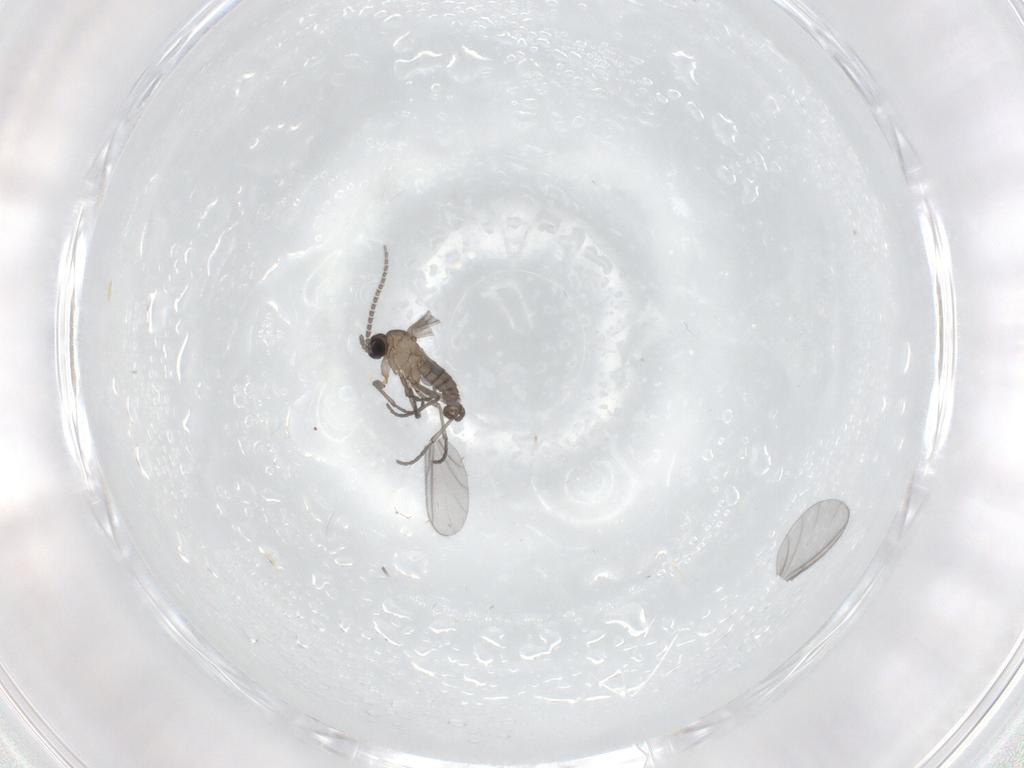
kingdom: Animalia
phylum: Arthropoda
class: Insecta
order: Diptera
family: Sciaridae
